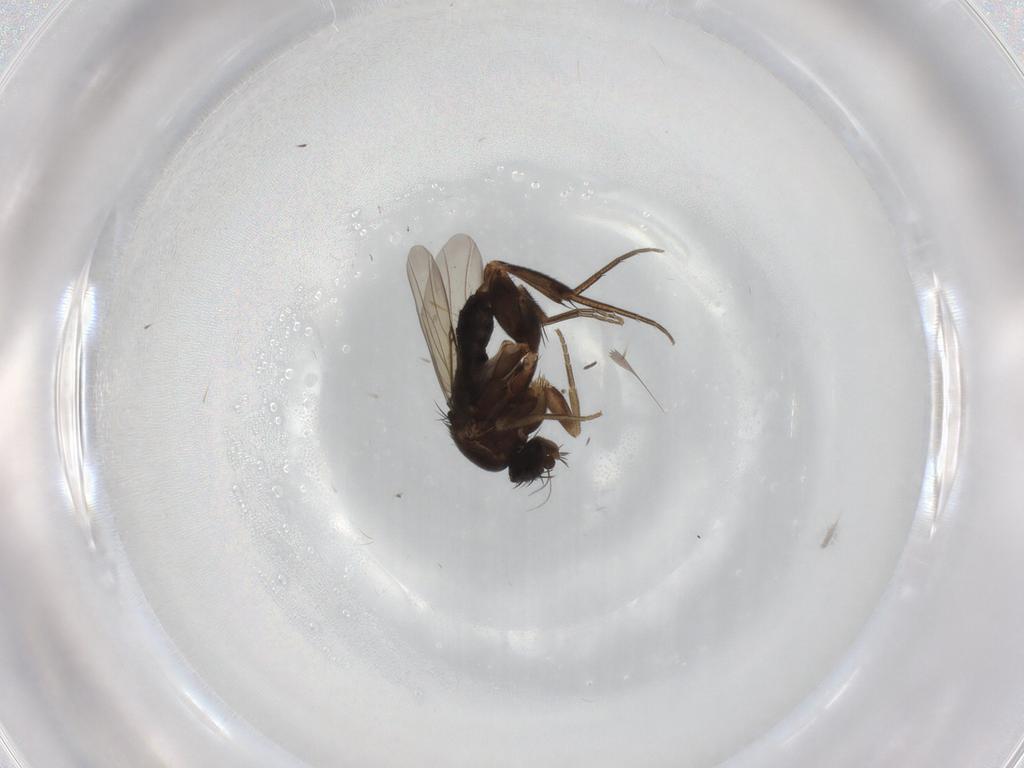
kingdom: Animalia
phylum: Arthropoda
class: Insecta
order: Diptera
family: Phoridae
